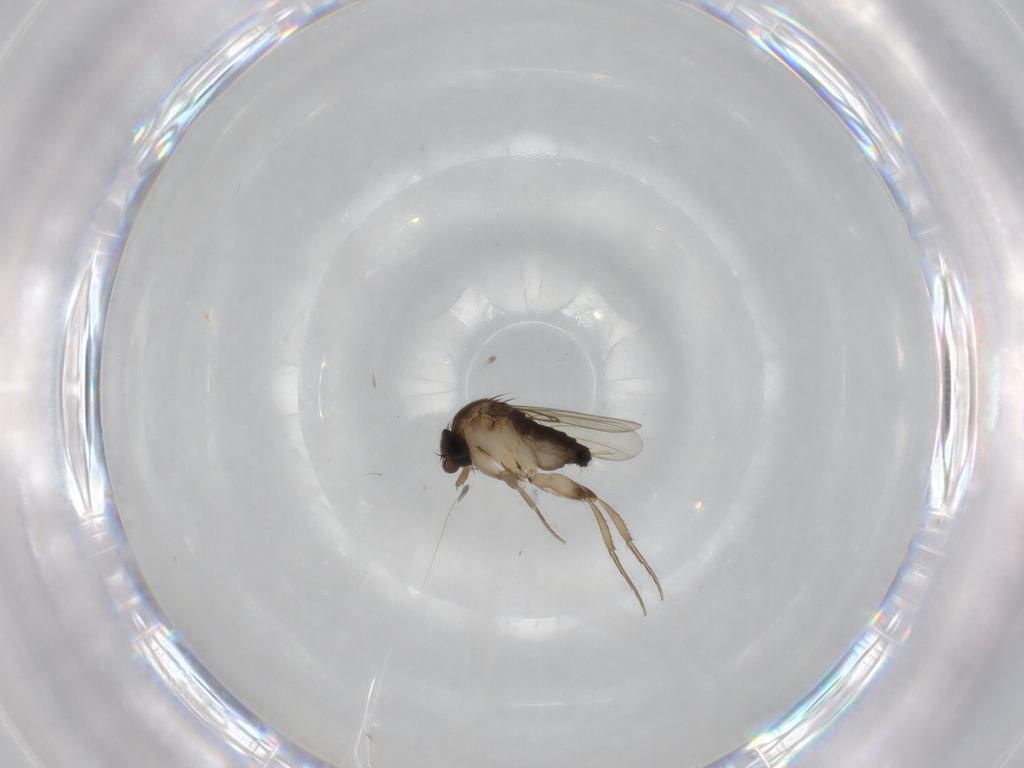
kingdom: Animalia
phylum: Arthropoda
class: Insecta
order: Diptera
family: Phoridae
